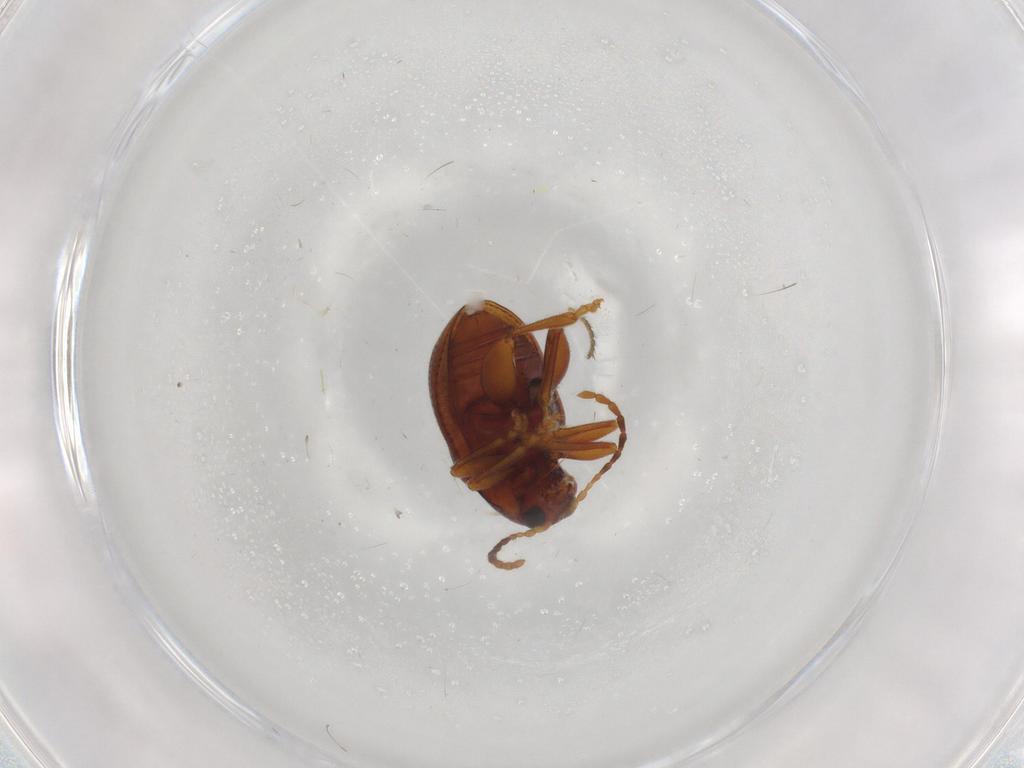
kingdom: Animalia
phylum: Arthropoda
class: Insecta
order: Coleoptera
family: Chrysomelidae
